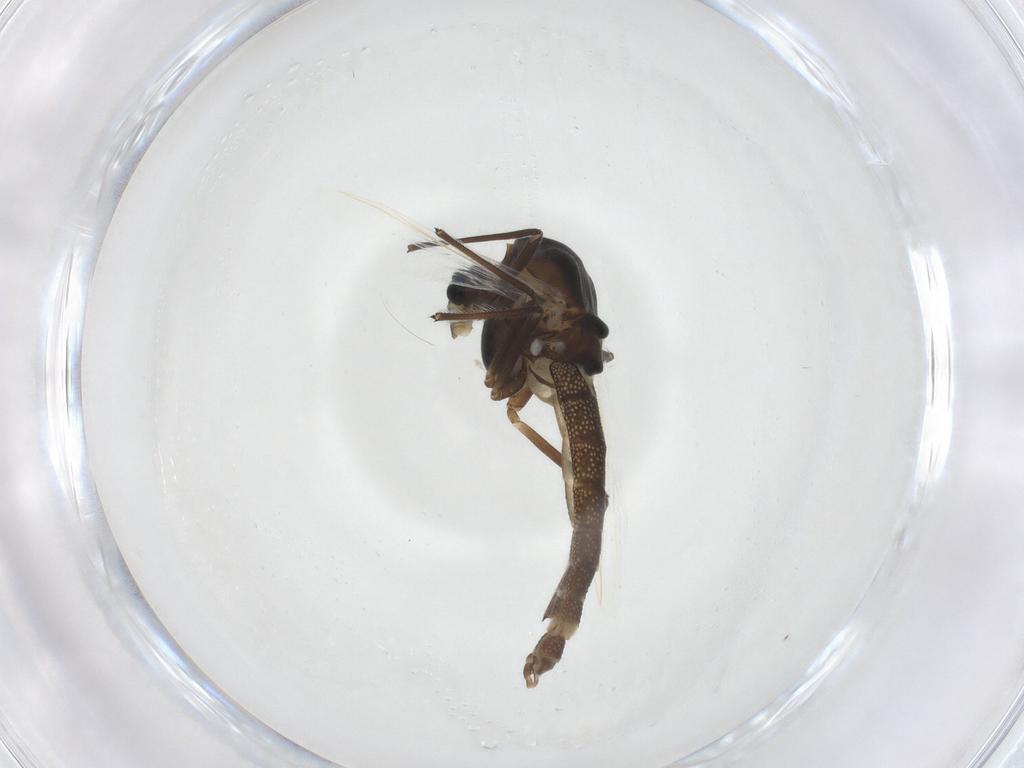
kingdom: Animalia
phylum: Arthropoda
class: Insecta
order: Diptera
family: Chironomidae
